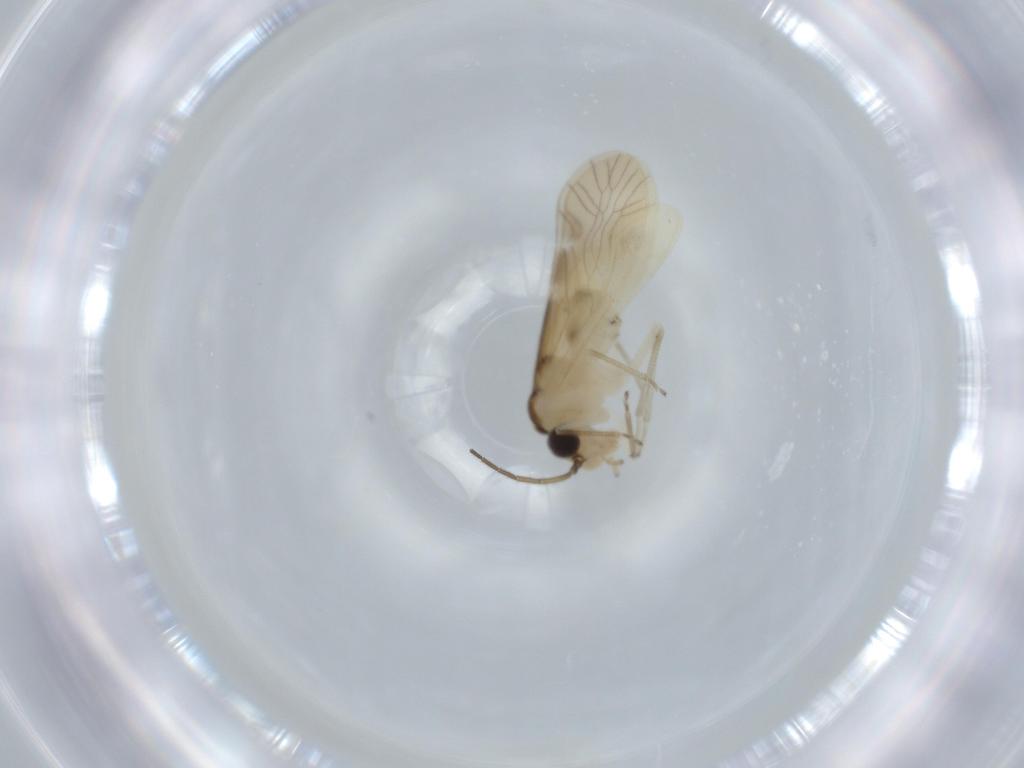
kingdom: Animalia
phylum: Arthropoda
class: Insecta
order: Psocodea
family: Caeciliusidae
